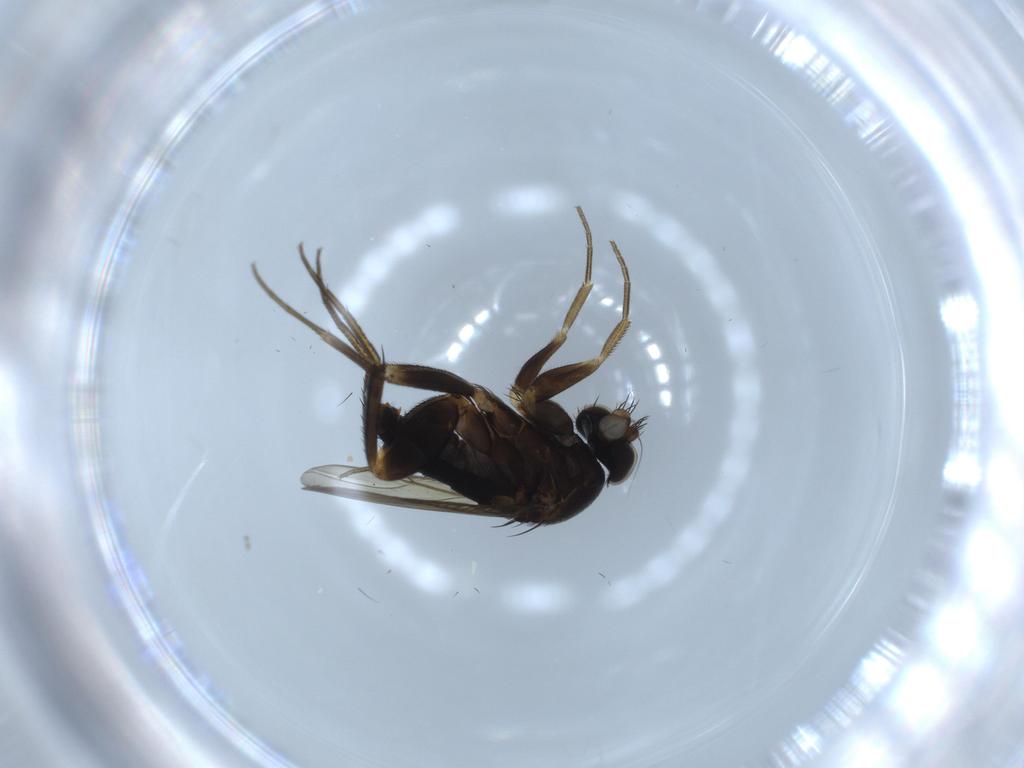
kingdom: Animalia
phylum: Arthropoda
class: Insecta
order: Diptera
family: Phoridae
